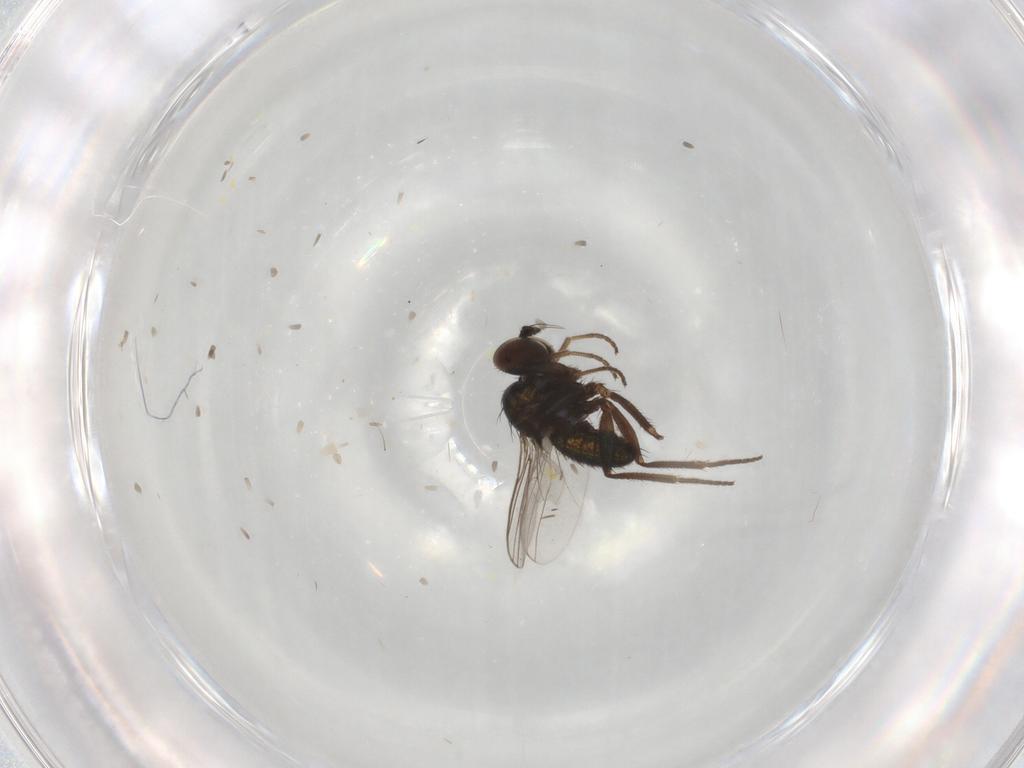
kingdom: Animalia
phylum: Arthropoda
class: Insecta
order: Diptera
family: Dolichopodidae
